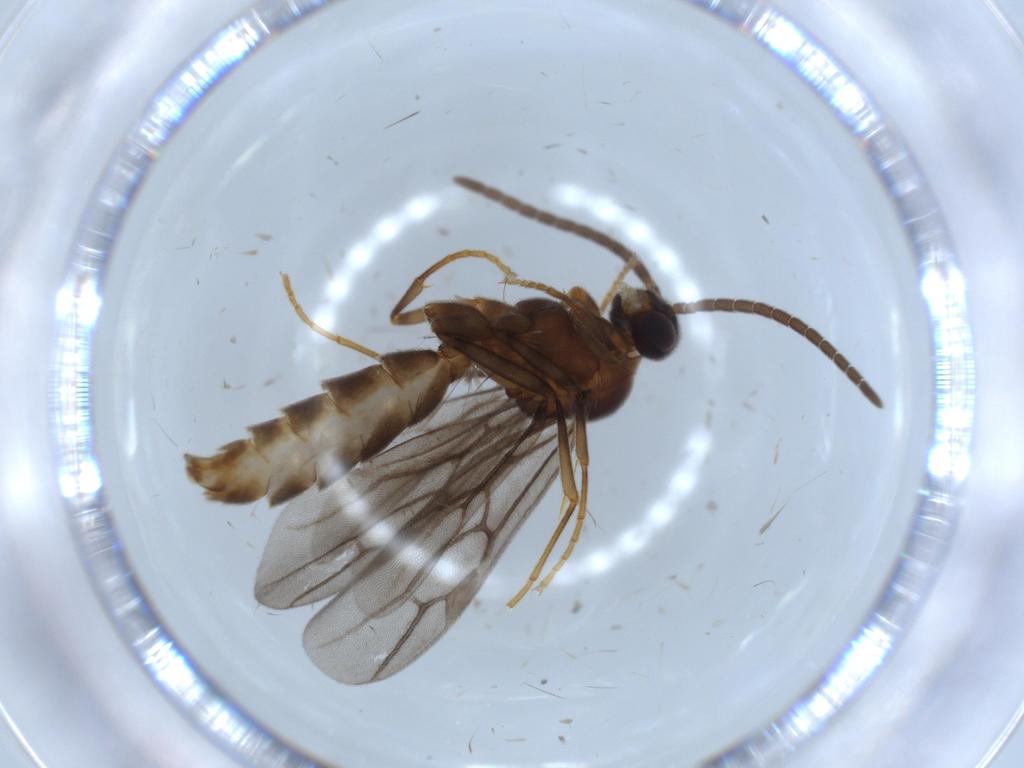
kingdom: Animalia
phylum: Arthropoda
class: Insecta
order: Hymenoptera
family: Formicidae
